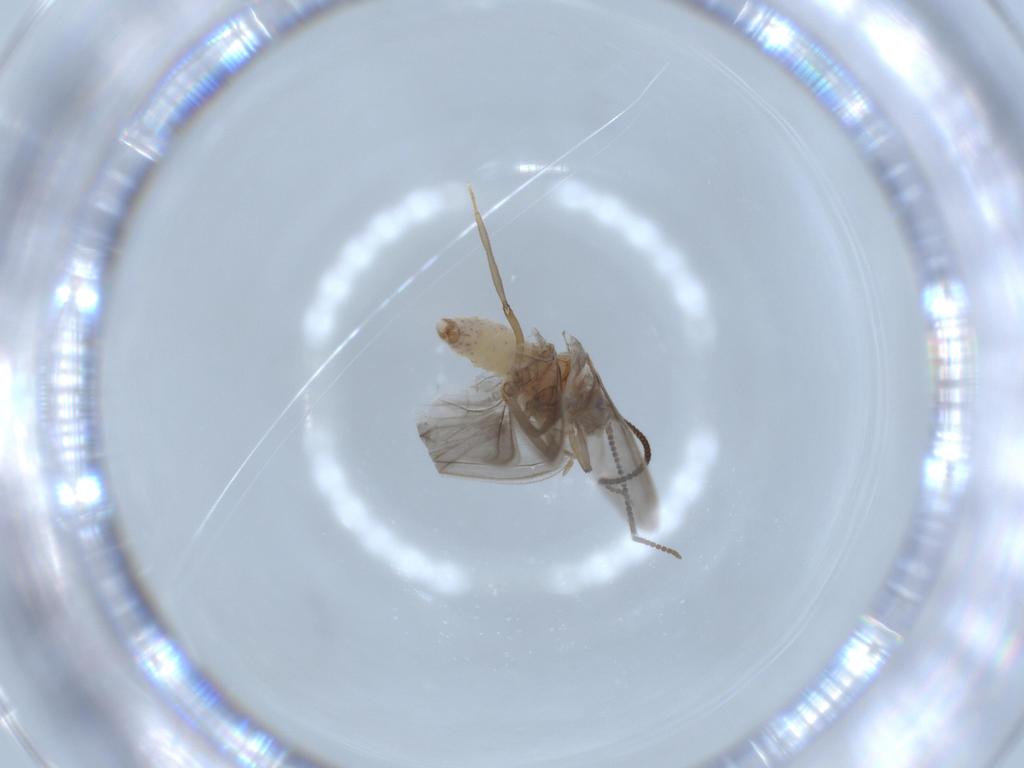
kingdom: Animalia
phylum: Arthropoda
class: Insecta
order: Neuroptera
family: Coniopterygidae
